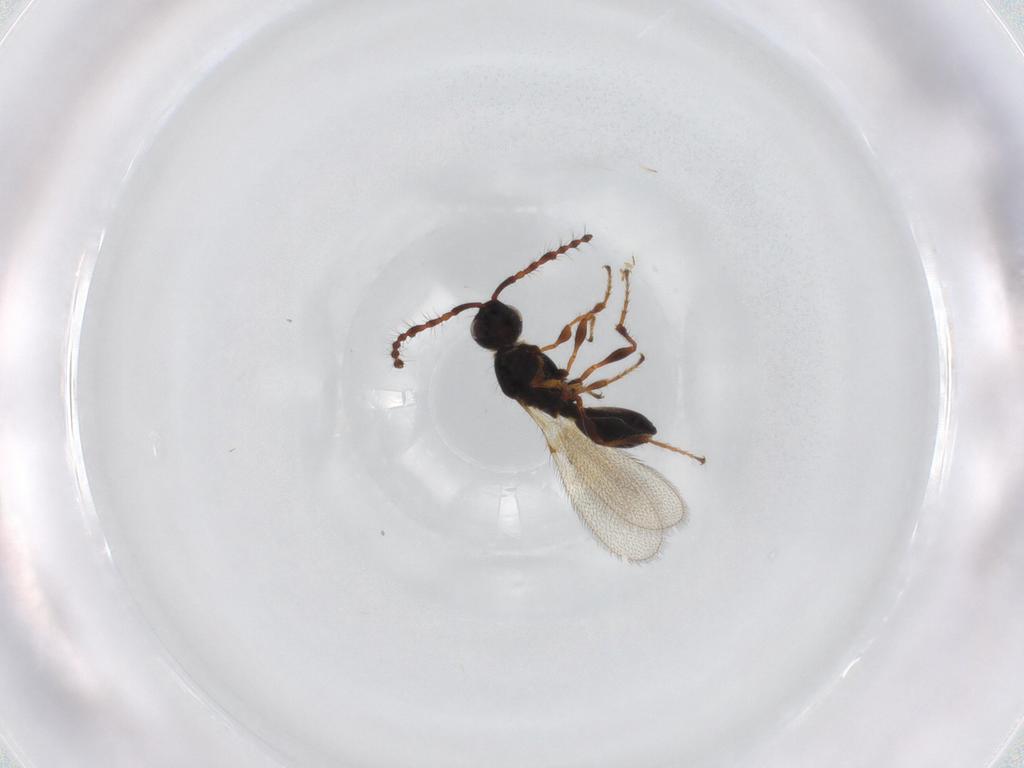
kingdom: Animalia
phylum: Arthropoda
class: Insecta
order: Hymenoptera
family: Diapriidae
